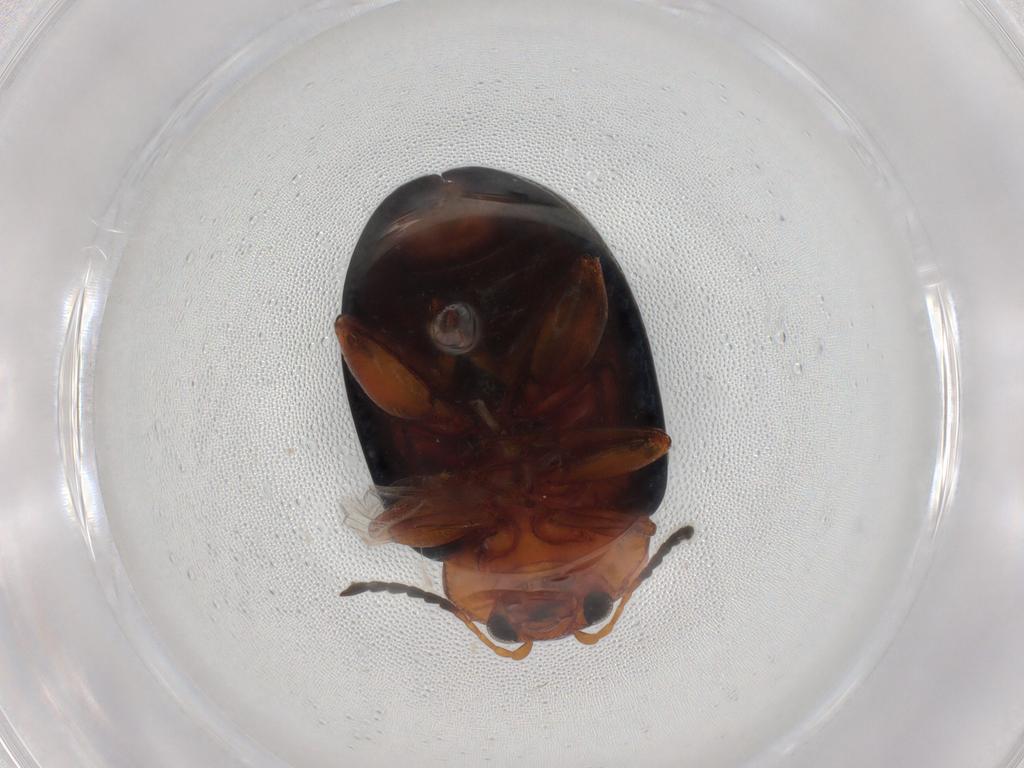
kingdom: Animalia
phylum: Arthropoda
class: Insecta
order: Coleoptera
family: Chrysomelidae
